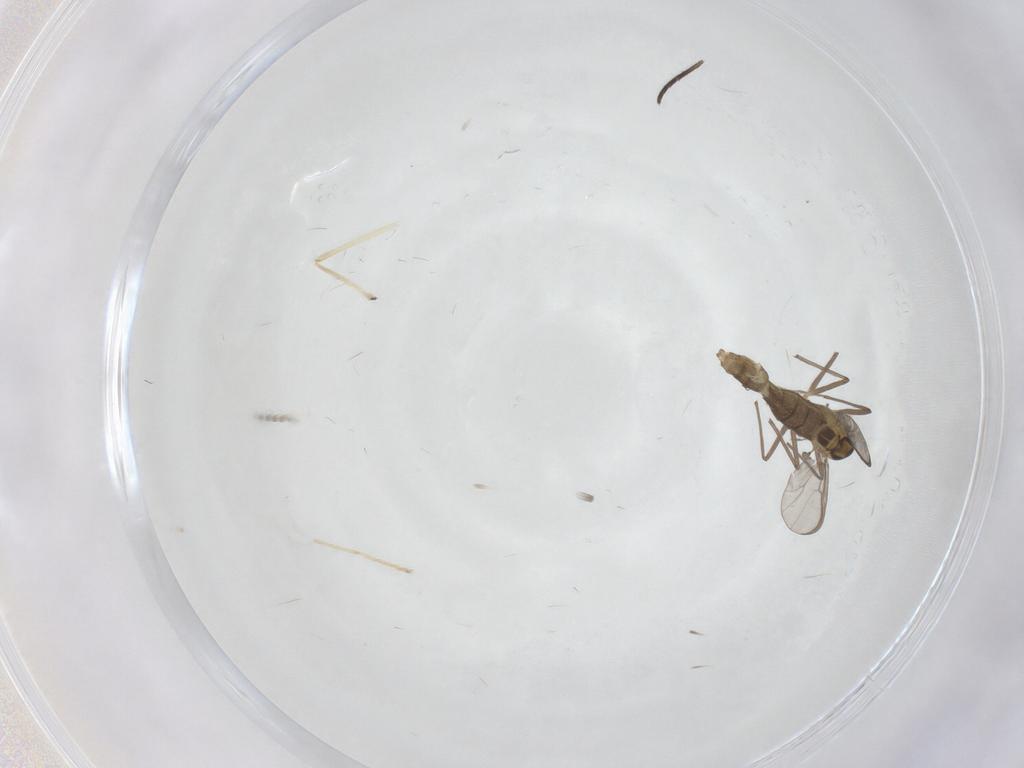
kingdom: Animalia
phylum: Arthropoda
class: Insecta
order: Diptera
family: Chironomidae
